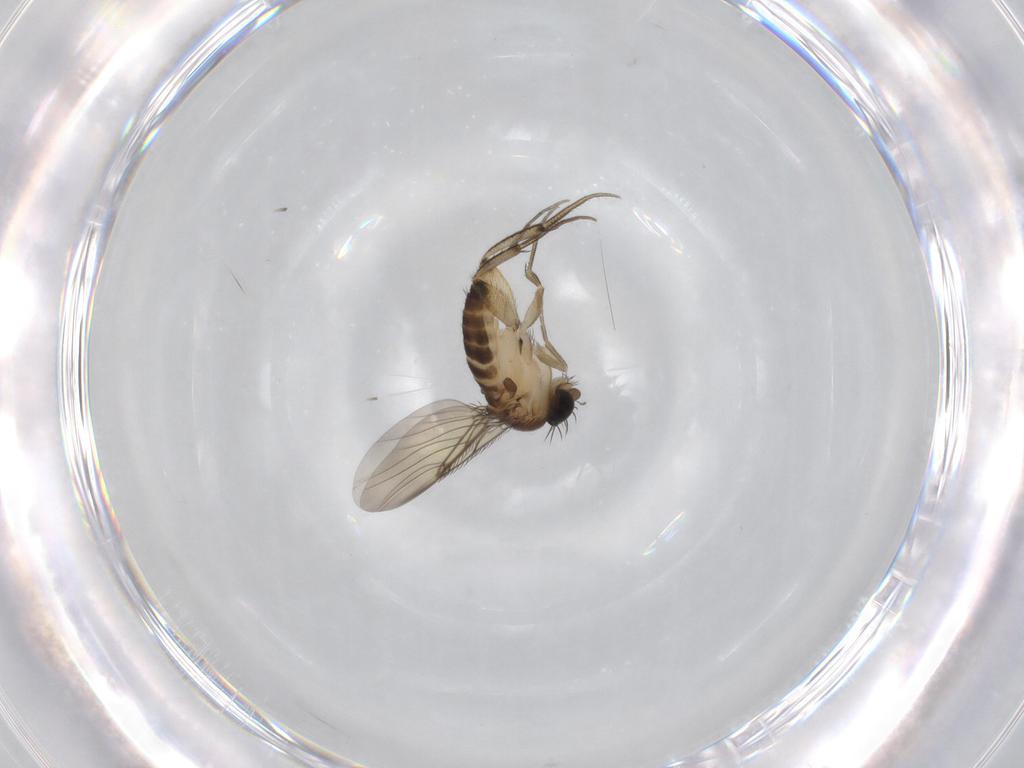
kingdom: Animalia
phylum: Arthropoda
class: Insecta
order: Diptera
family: Phoridae
